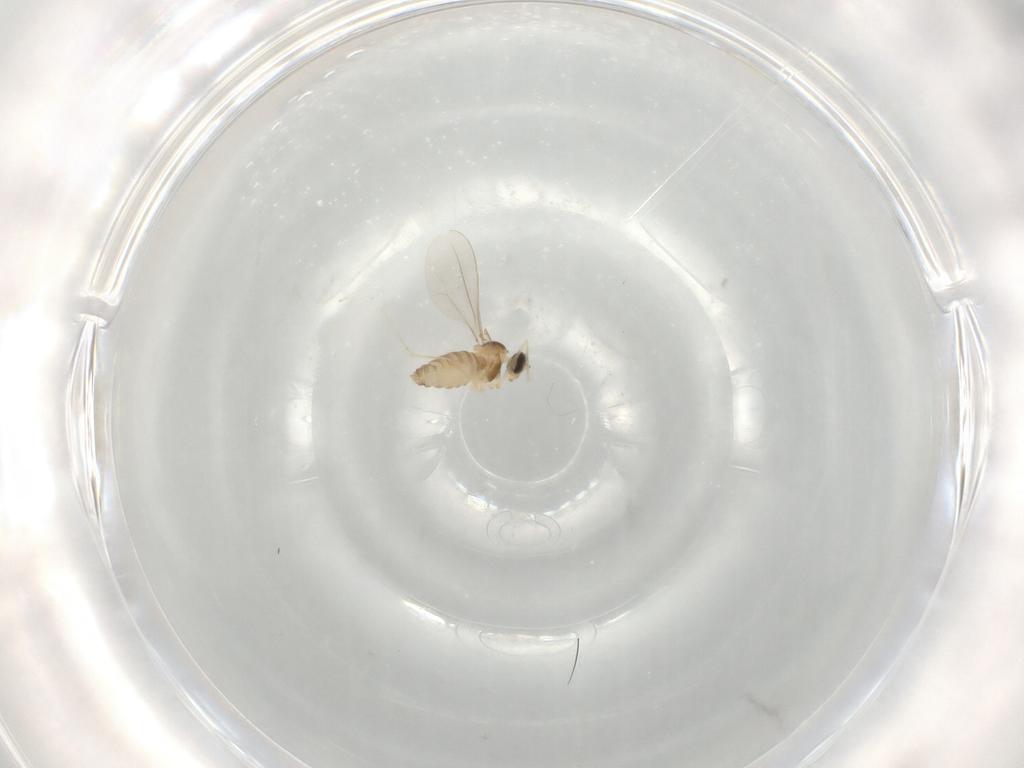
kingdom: Animalia
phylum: Arthropoda
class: Insecta
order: Diptera
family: Cecidomyiidae
